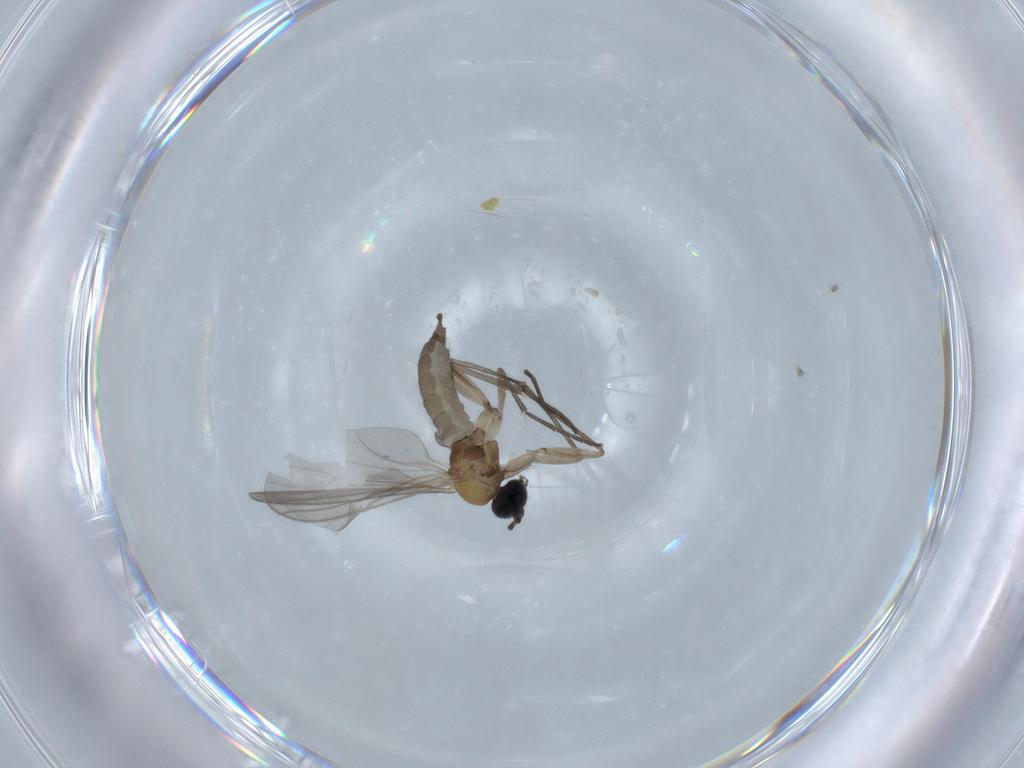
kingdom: Animalia
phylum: Arthropoda
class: Insecta
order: Diptera
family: Sciaridae
